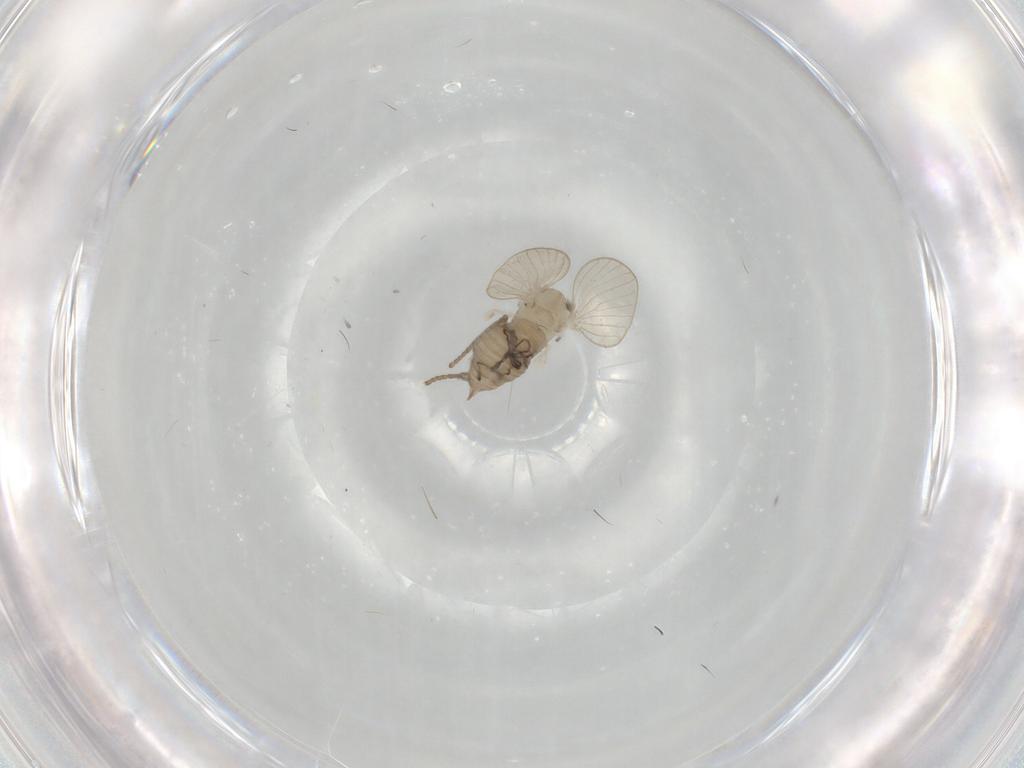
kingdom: Animalia
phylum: Arthropoda
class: Insecta
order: Diptera
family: Psychodidae
